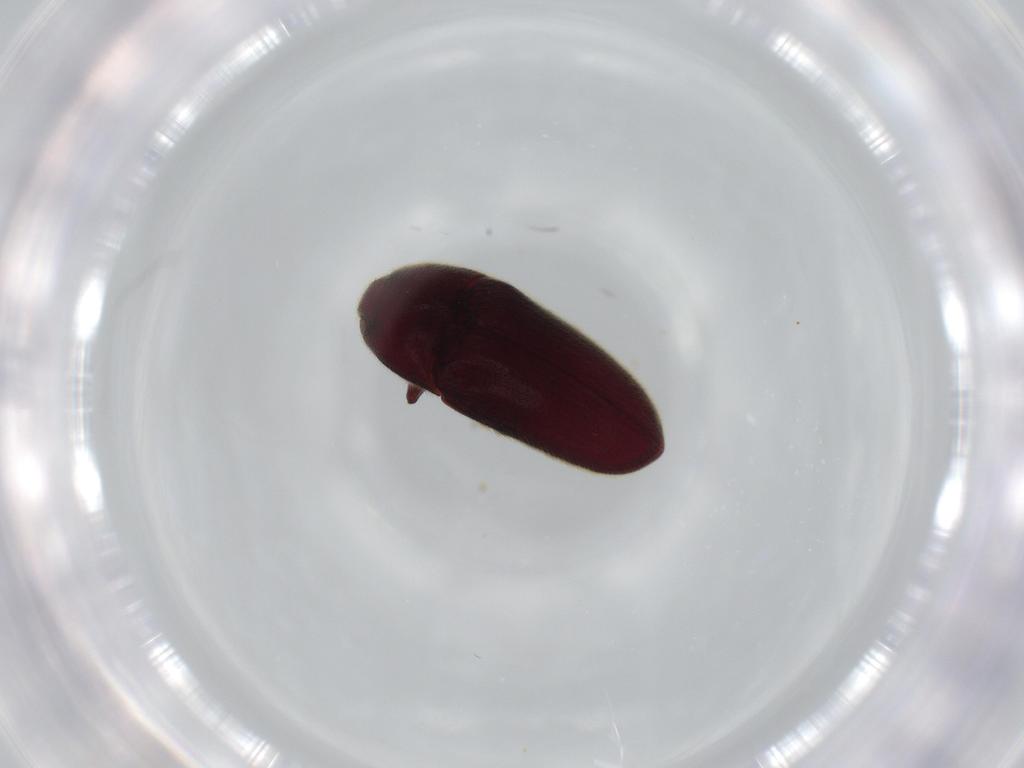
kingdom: Animalia
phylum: Arthropoda
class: Insecta
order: Coleoptera
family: Throscidae
